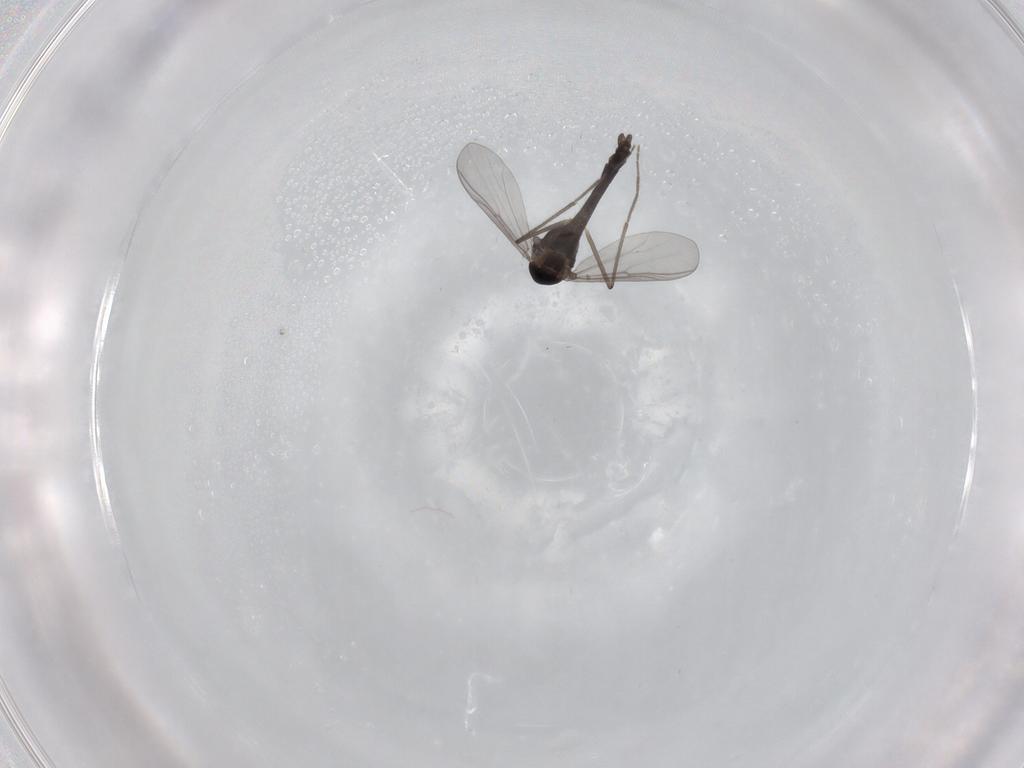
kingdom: Animalia
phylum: Arthropoda
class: Insecta
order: Diptera
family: Chironomidae
